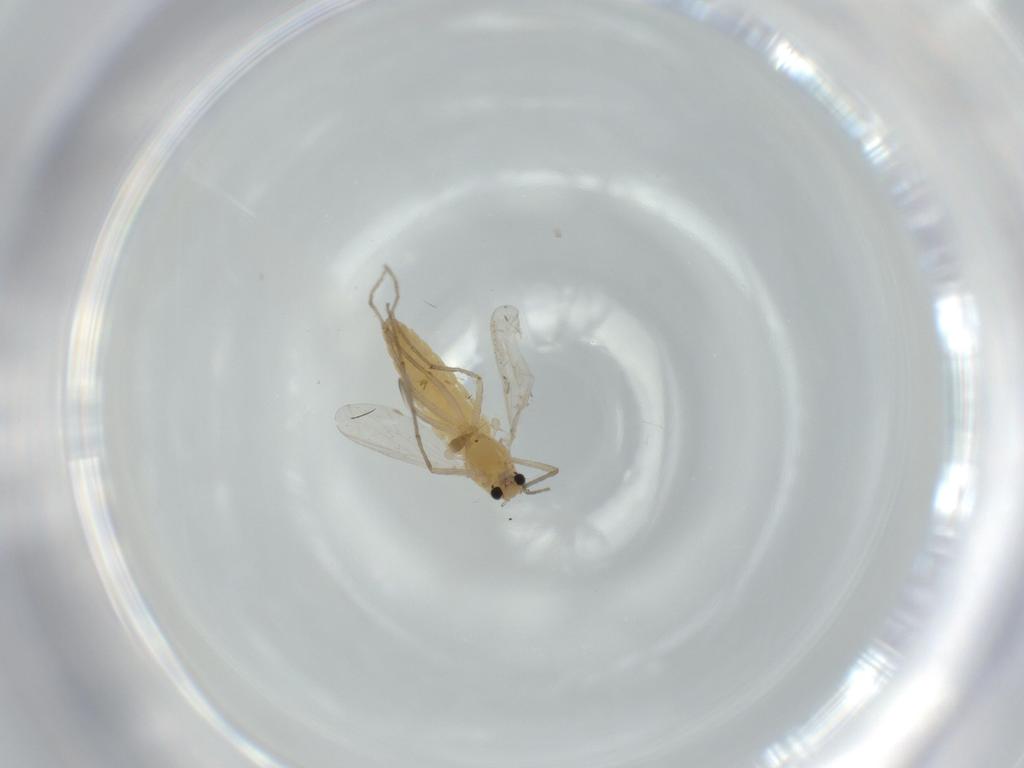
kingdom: Animalia
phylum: Arthropoda
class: Insecta
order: Diptera
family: Chironomidae
